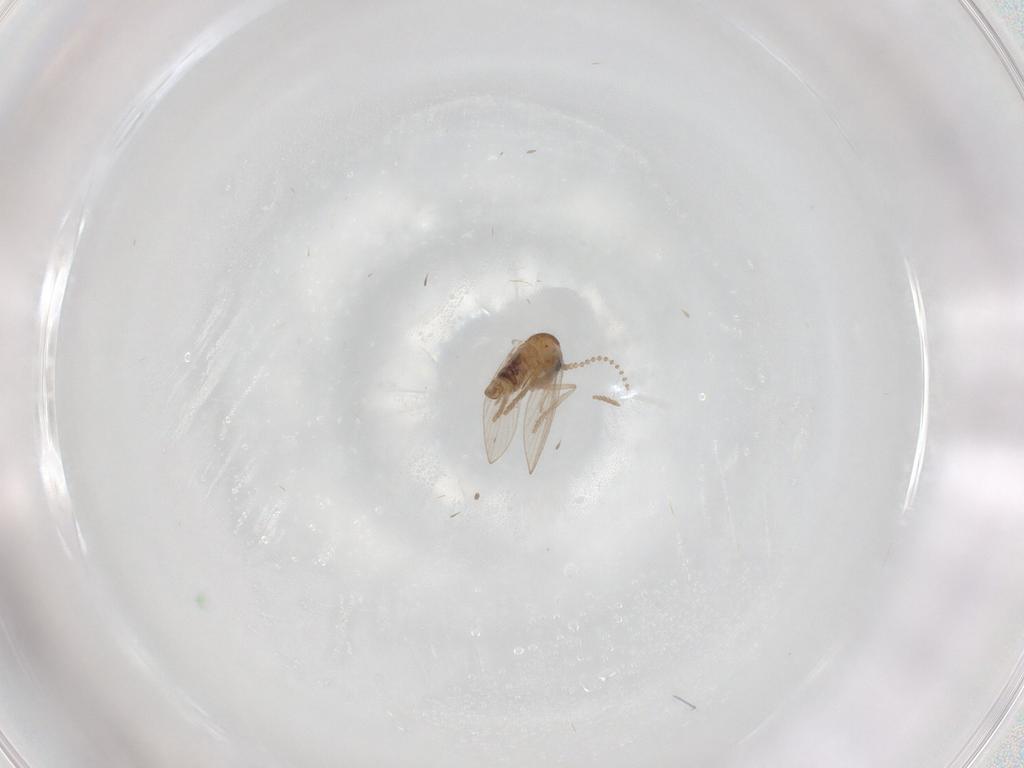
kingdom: Animalia
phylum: Arthropoda
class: Insecta
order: Diptera
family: Psychodidae
